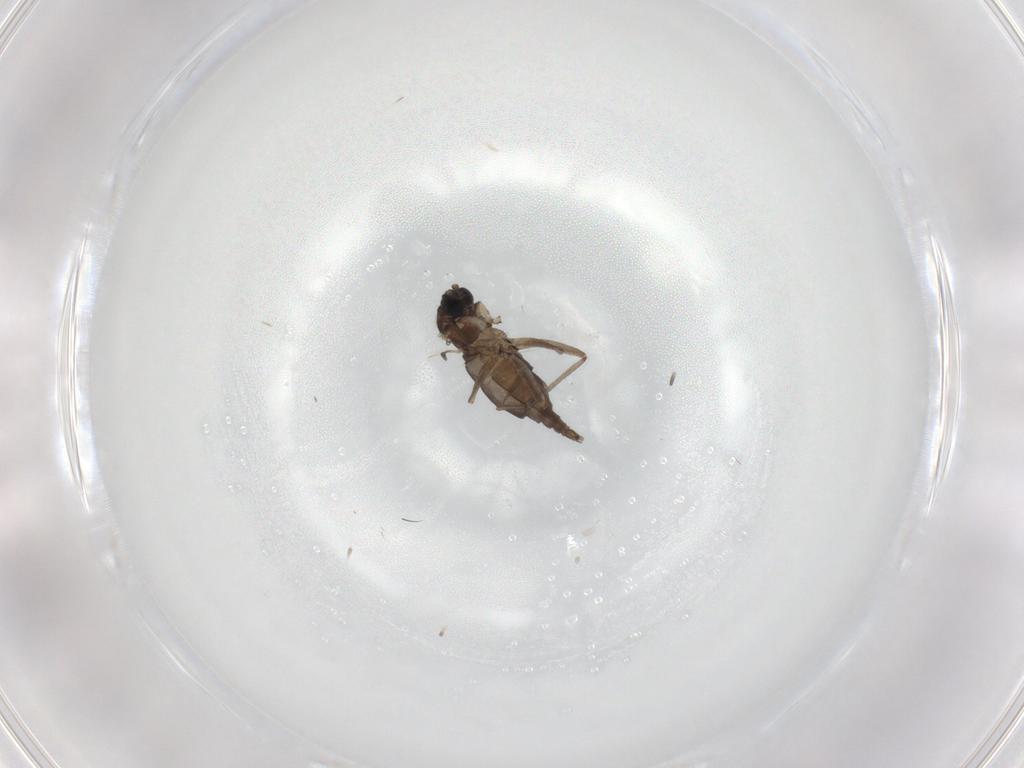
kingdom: Animalia
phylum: Arthropoda
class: Insecta
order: Diptera
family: Sciaridae
